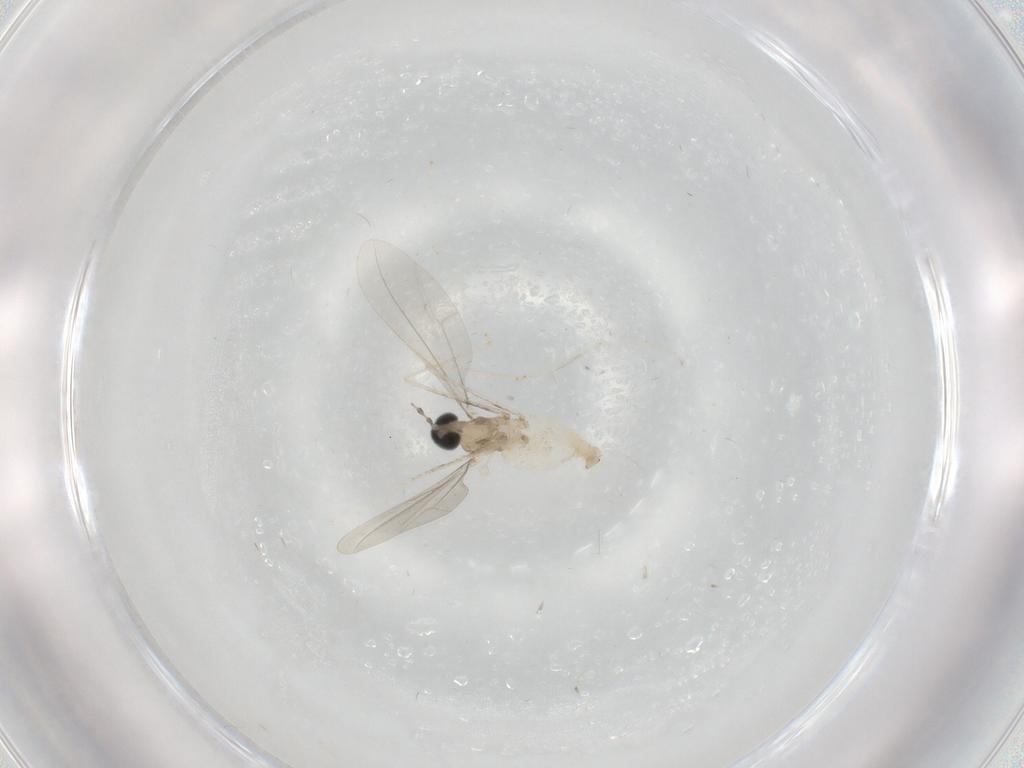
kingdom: Animalia
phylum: Arthropoda
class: Insecta
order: Diptera
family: Cecidomyiidae
